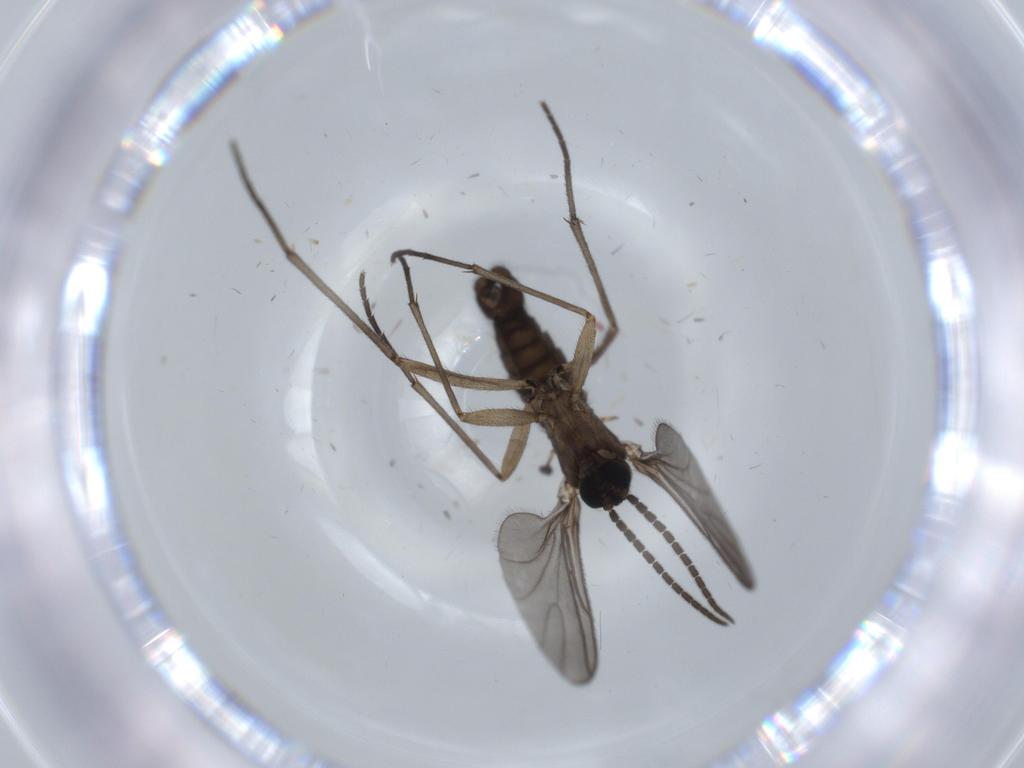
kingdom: Animalia
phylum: Arthropoda
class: Insecta
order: Diptera
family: Sciaridae
